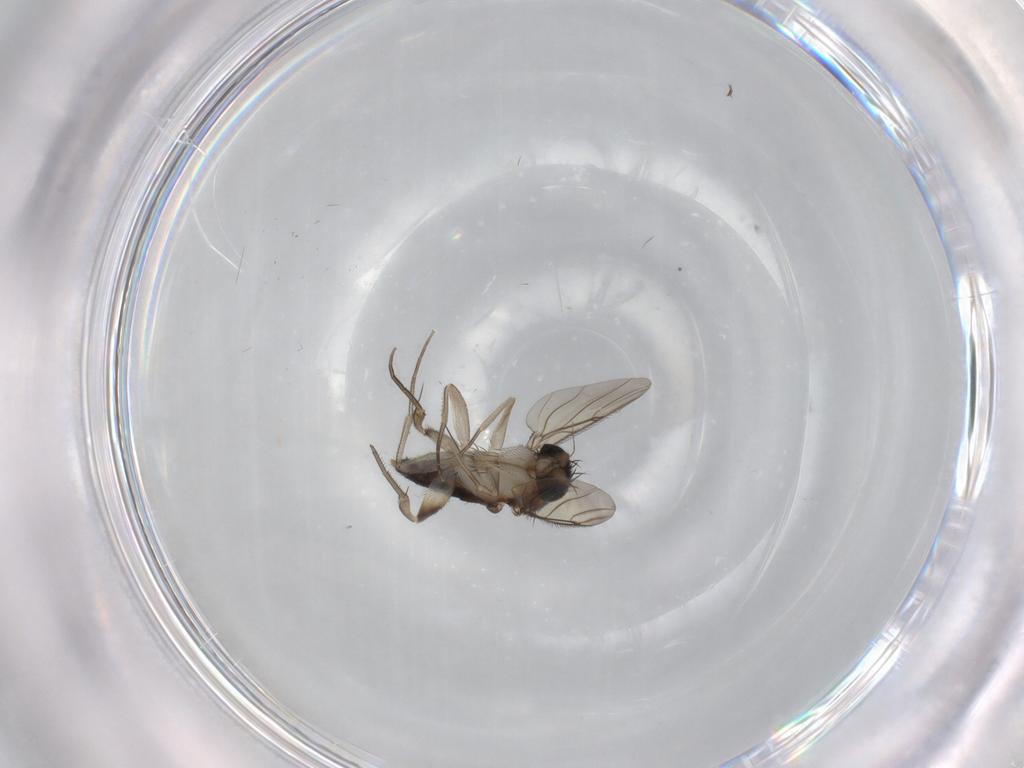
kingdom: Animalia
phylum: Arthropoda
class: Insecta
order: Diptera
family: Phoridae
